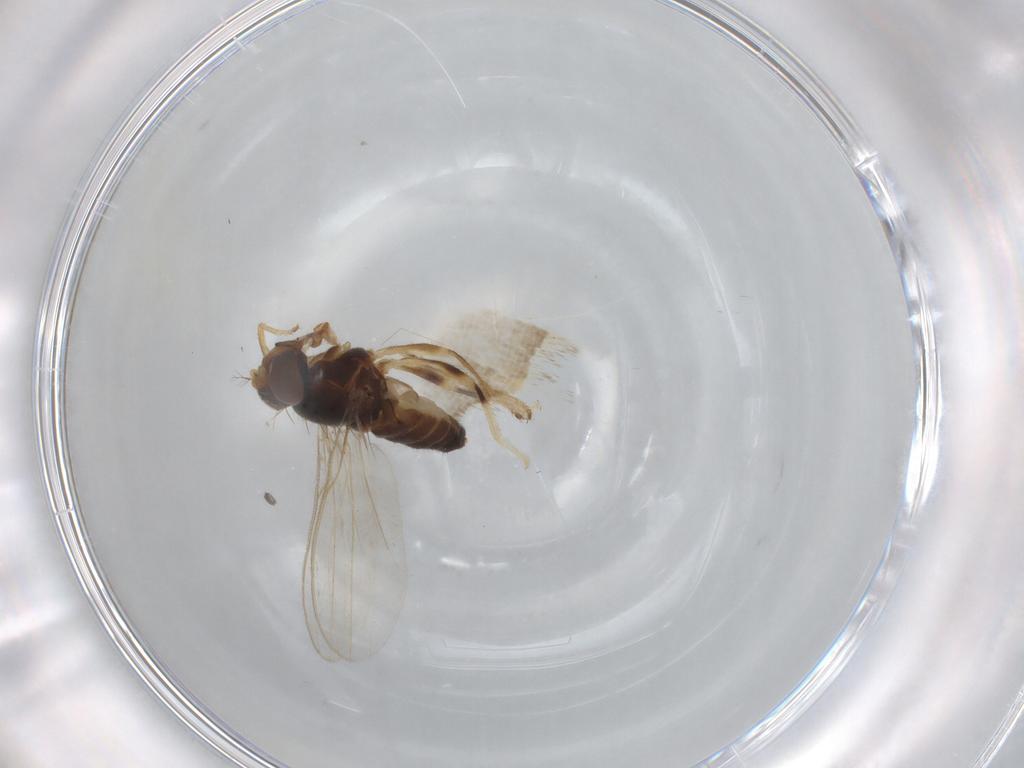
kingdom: Animalia
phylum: Arthropoda
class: Insecta
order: Diptera
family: Periscelididae
